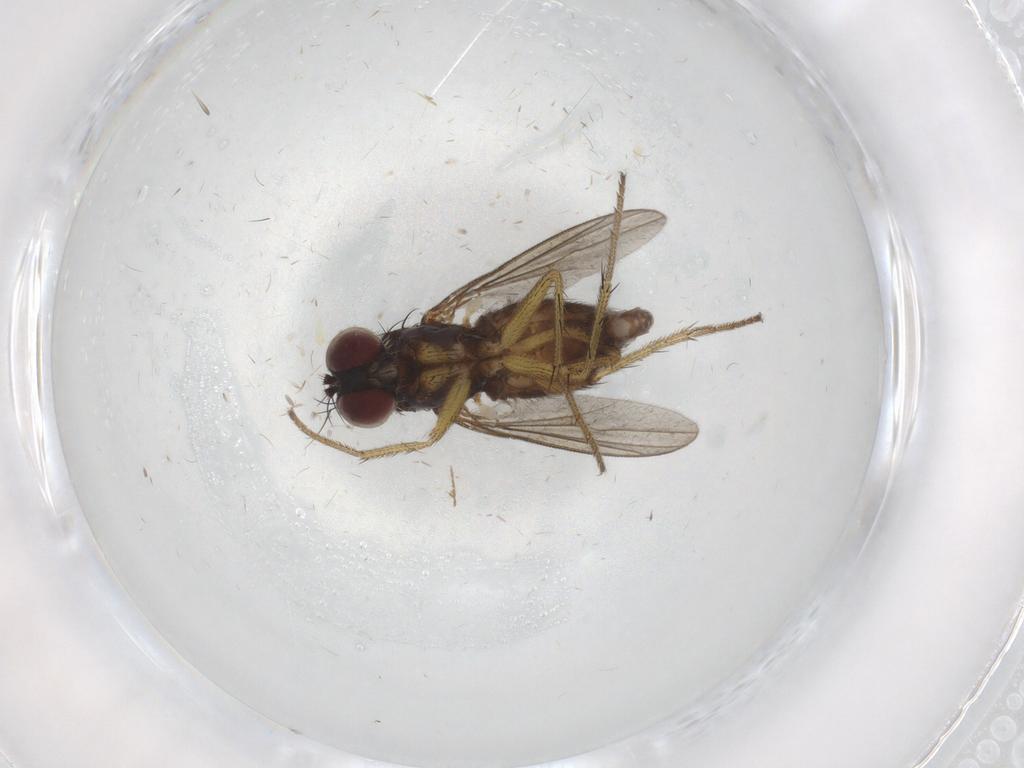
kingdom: Animalia
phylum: Arthropoda
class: Insecta
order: Diptera
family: Dolichopodidae
